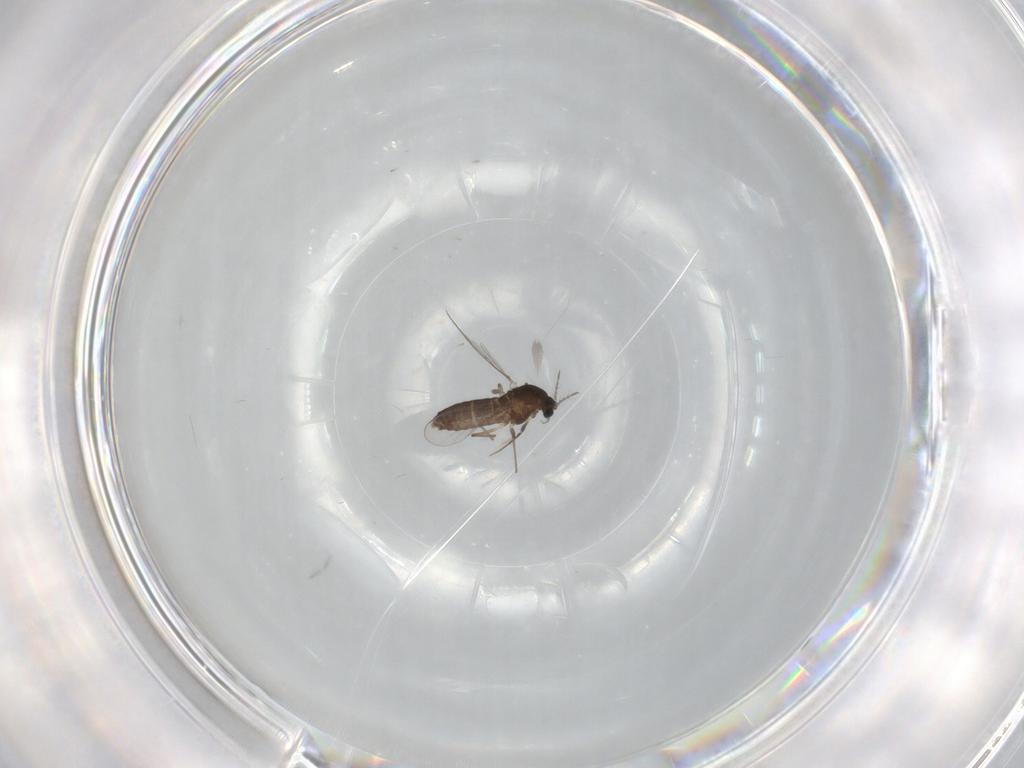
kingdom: Animalia
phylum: Arthropoda
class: Insecta
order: Diptera
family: Chironomidae
